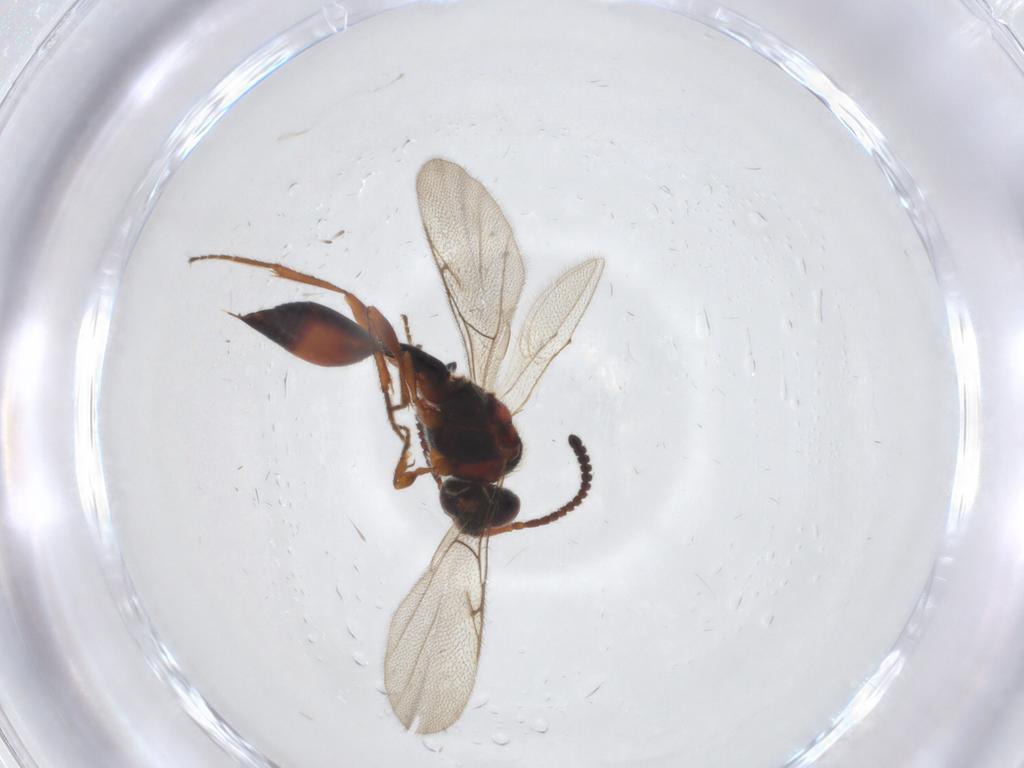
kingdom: Animalia
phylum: Arthropoda
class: Insecta
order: Hymenoptera
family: Diapriidae
